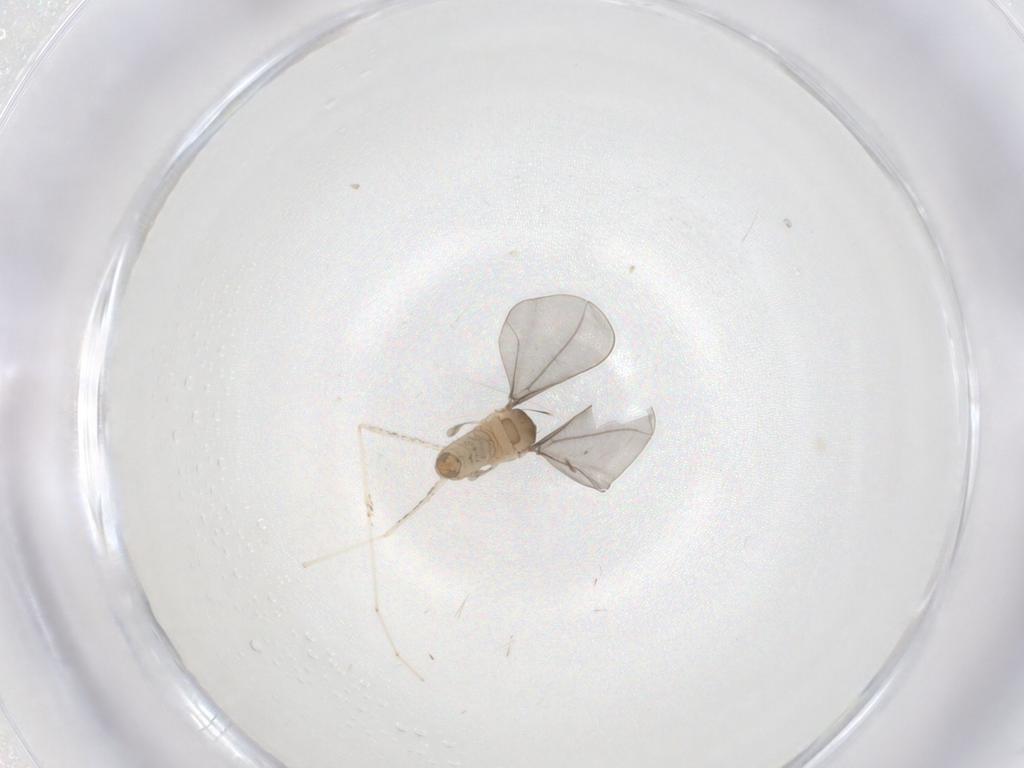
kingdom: Animalia
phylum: Arthropoda
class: Insecta
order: Diptera
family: Cecidomyiidae
